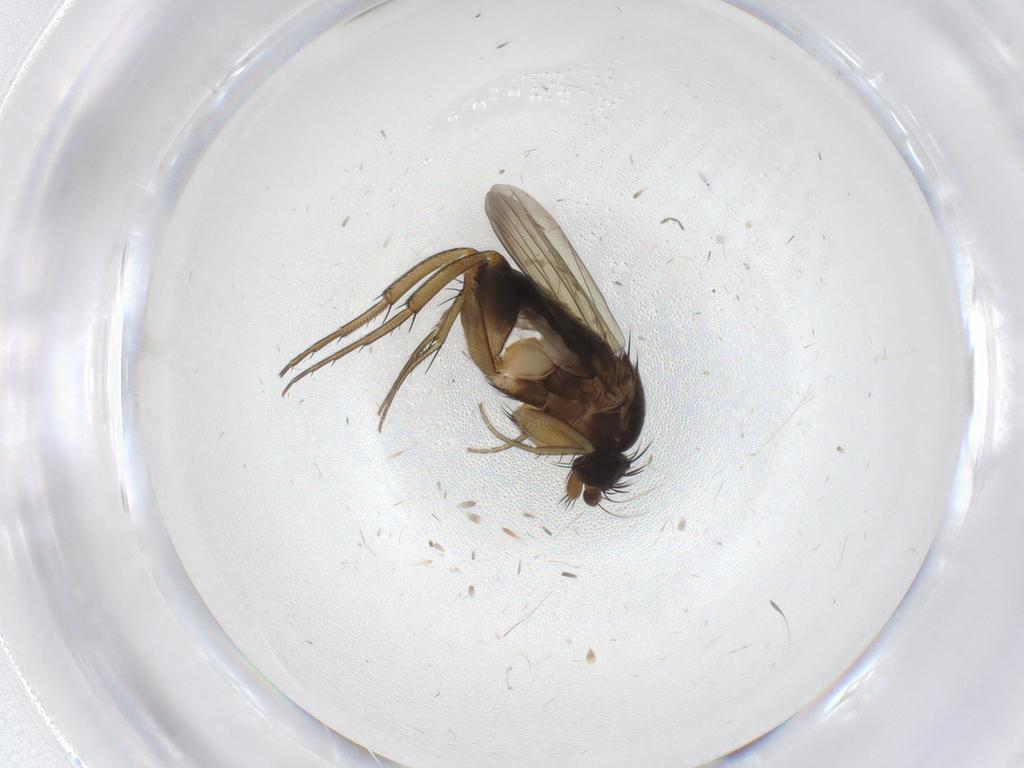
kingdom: Animalia
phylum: Arthropoda
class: Insecta
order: Diptera
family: Phoridae
